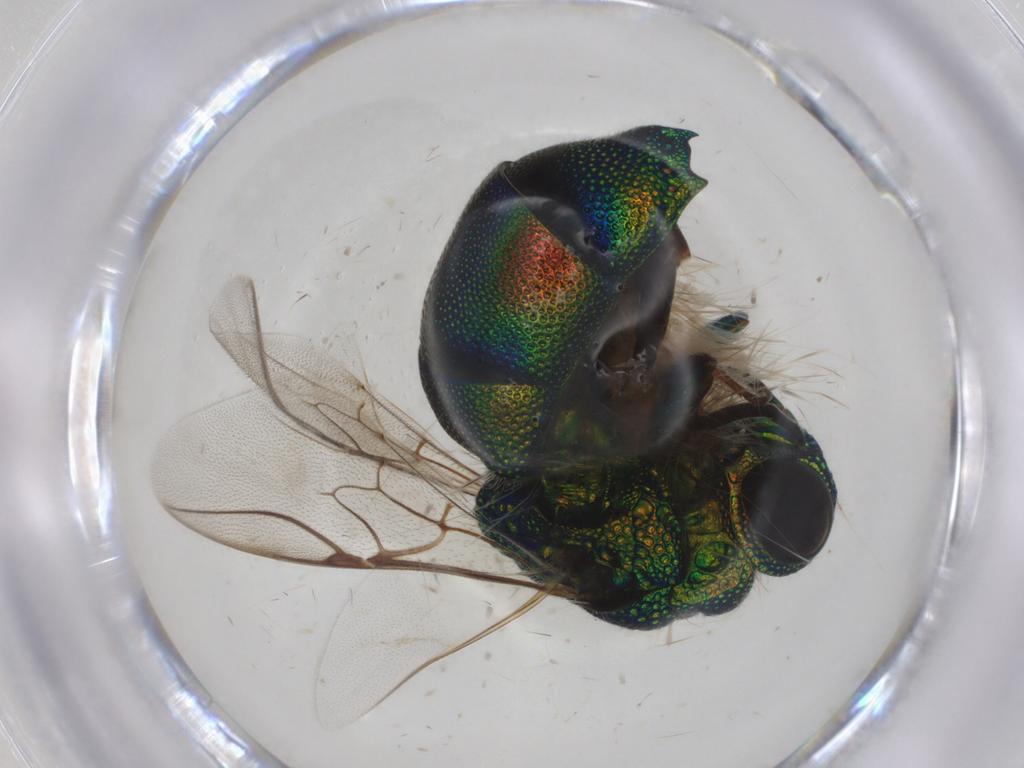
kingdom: Animalia
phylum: Arthropoda
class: Insecta
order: Hymenoptera
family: Chrysididae
